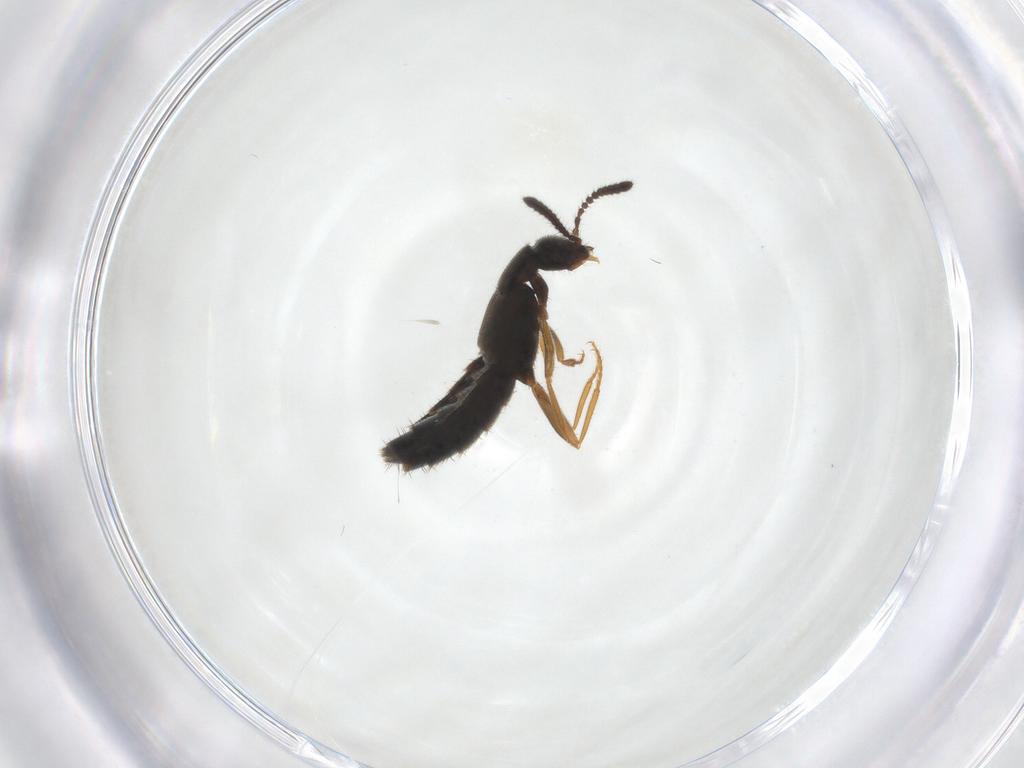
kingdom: Animalia
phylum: Arthropoda
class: Insecta
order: Coleoptera
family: Staphylinidae
